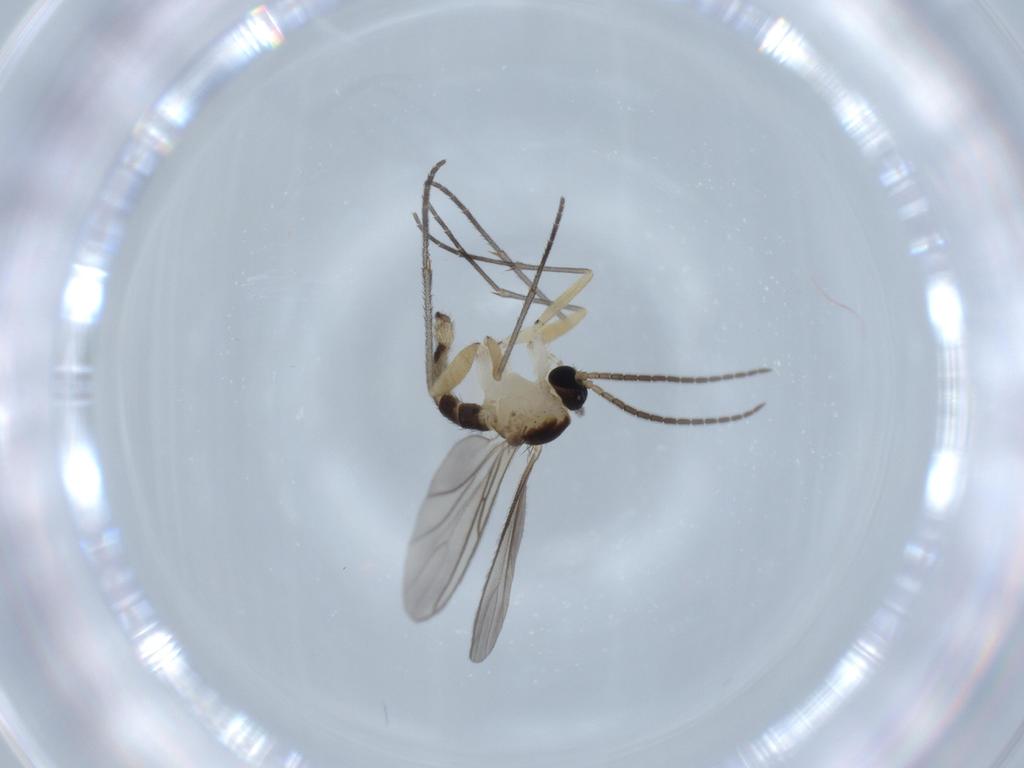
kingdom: Animalia
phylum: Arthropoda
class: Insecta
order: Diptera
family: Sciaridae
